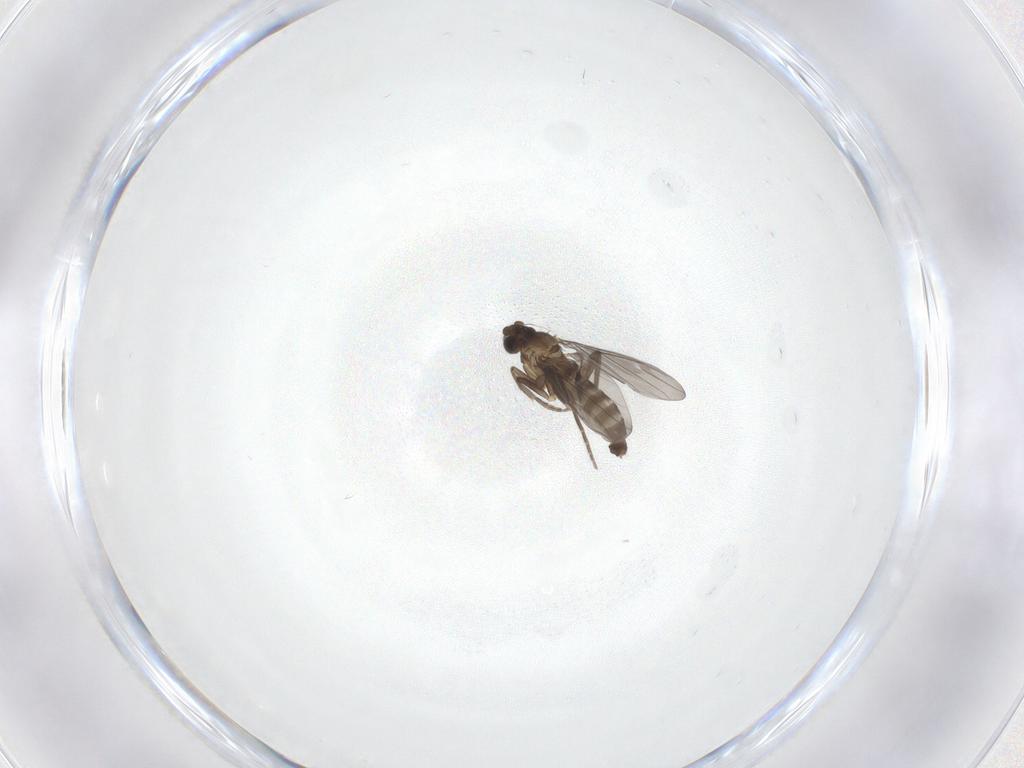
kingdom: Animalia
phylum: Arthropoda
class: Insecta
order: Diptera
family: Phoridae
